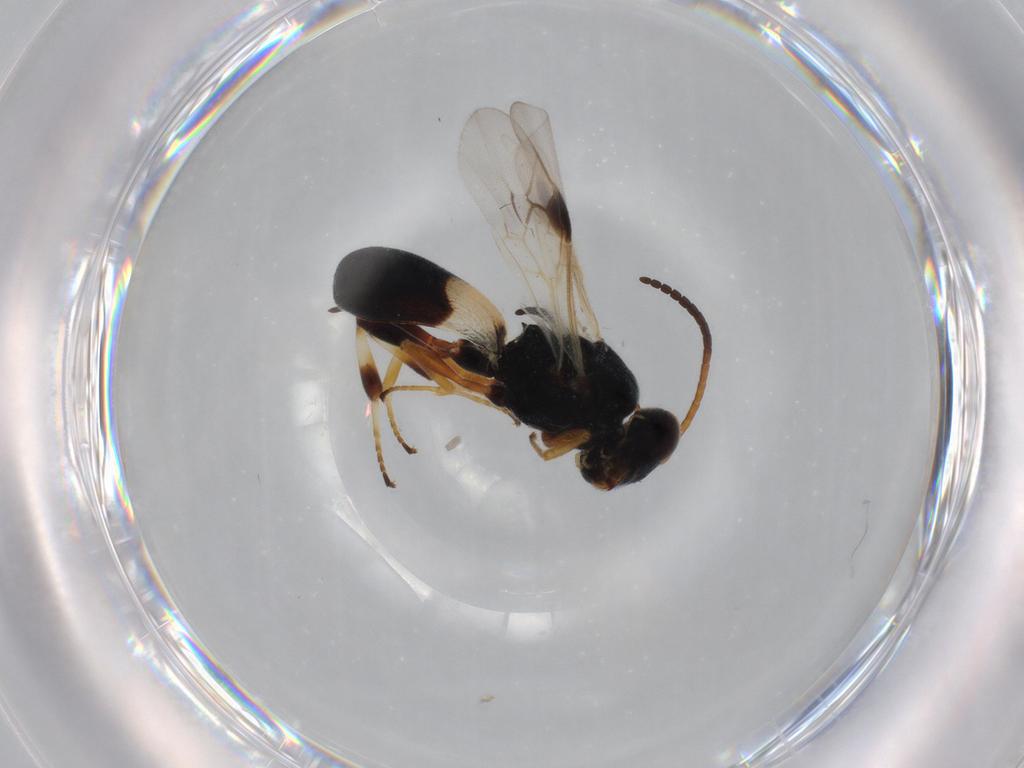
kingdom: Animalia
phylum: Arthropoda
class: Insecta
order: Hymenoptera
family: Braconidae
